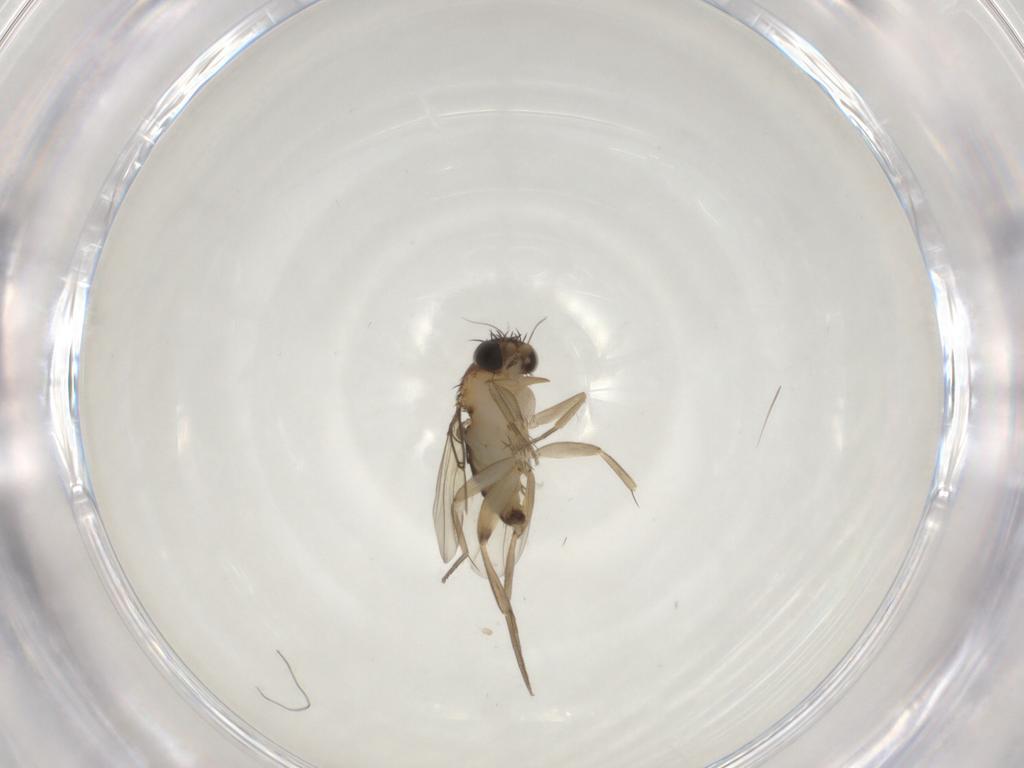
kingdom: Animalia
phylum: Arthropoda
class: Insecta
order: Diptera
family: Phoridae
